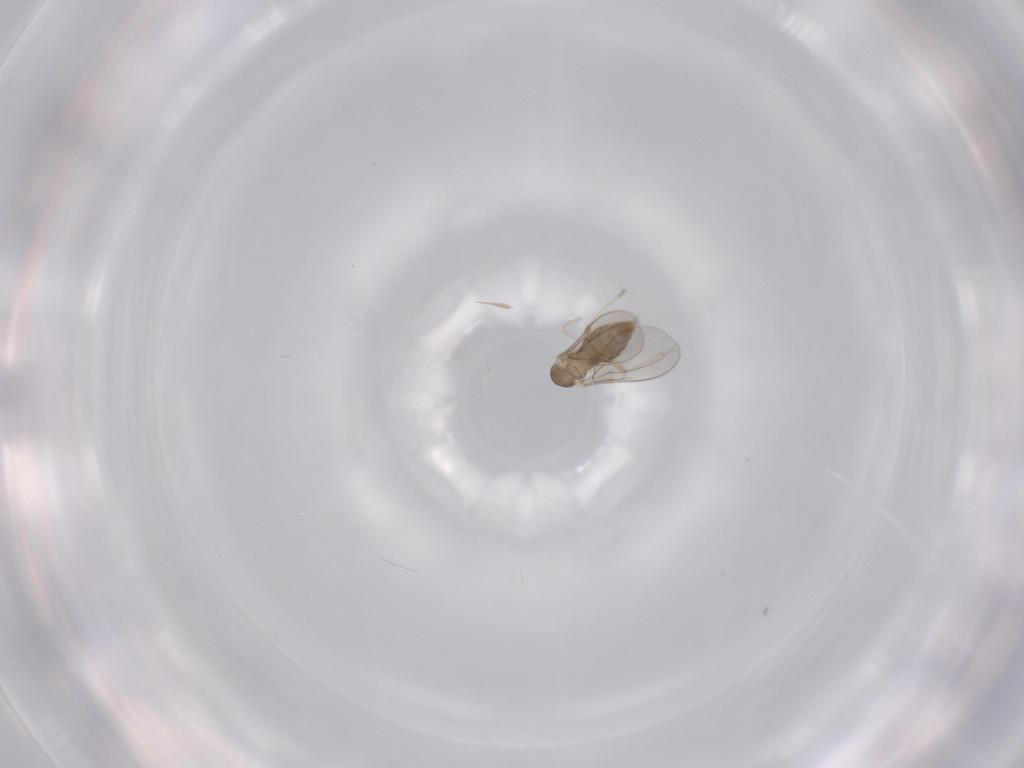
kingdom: Animalia
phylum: Arthropoda
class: Insecta
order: Diptera
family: Cecidomyiidae
